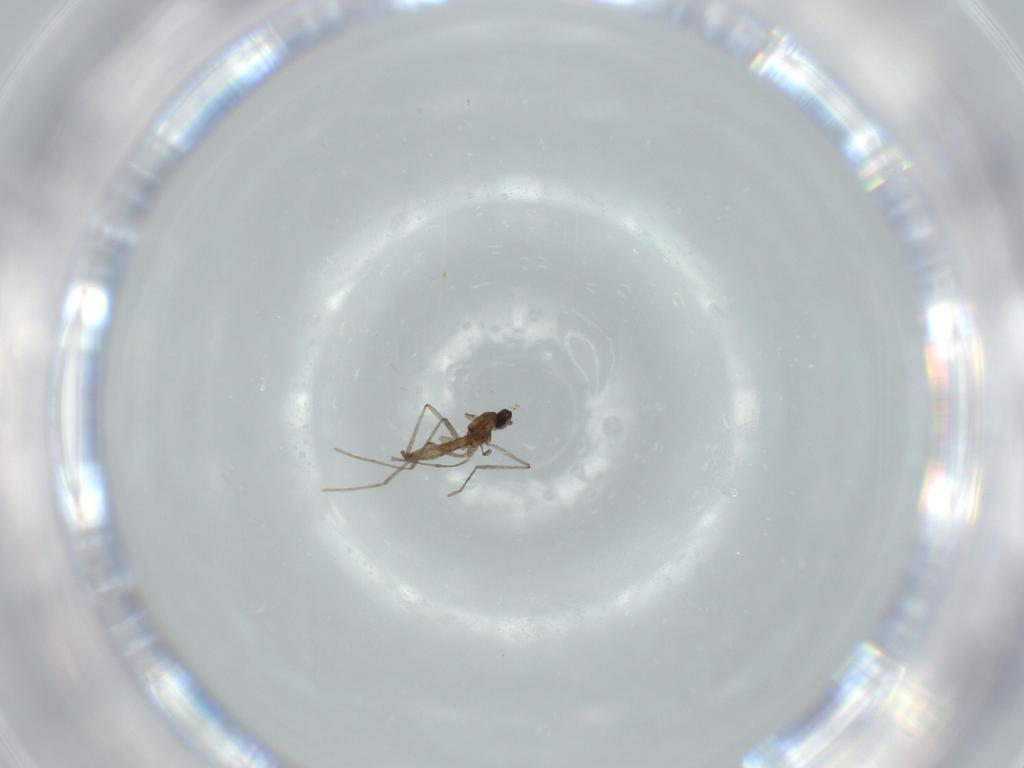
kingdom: Animalia
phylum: Arthropoda
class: Insecta
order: Diptera
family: Cecidomyiidae
